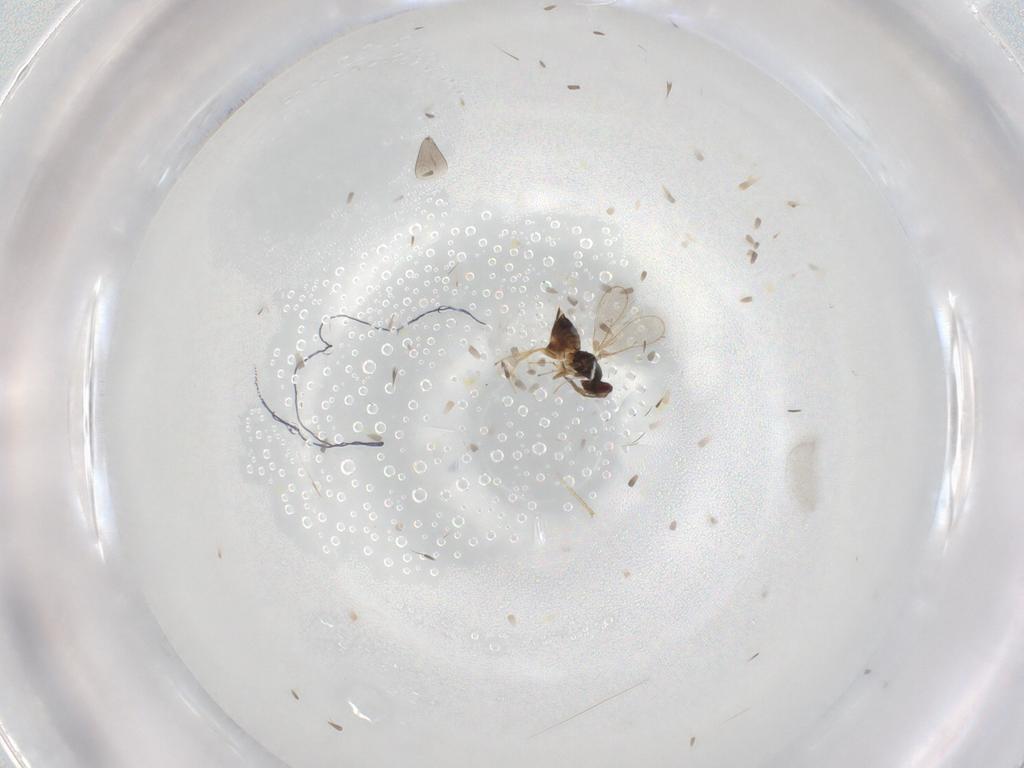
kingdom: Animalia
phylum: Arthropoda
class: Insecta
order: Hymenoptera
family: Eulophidae
